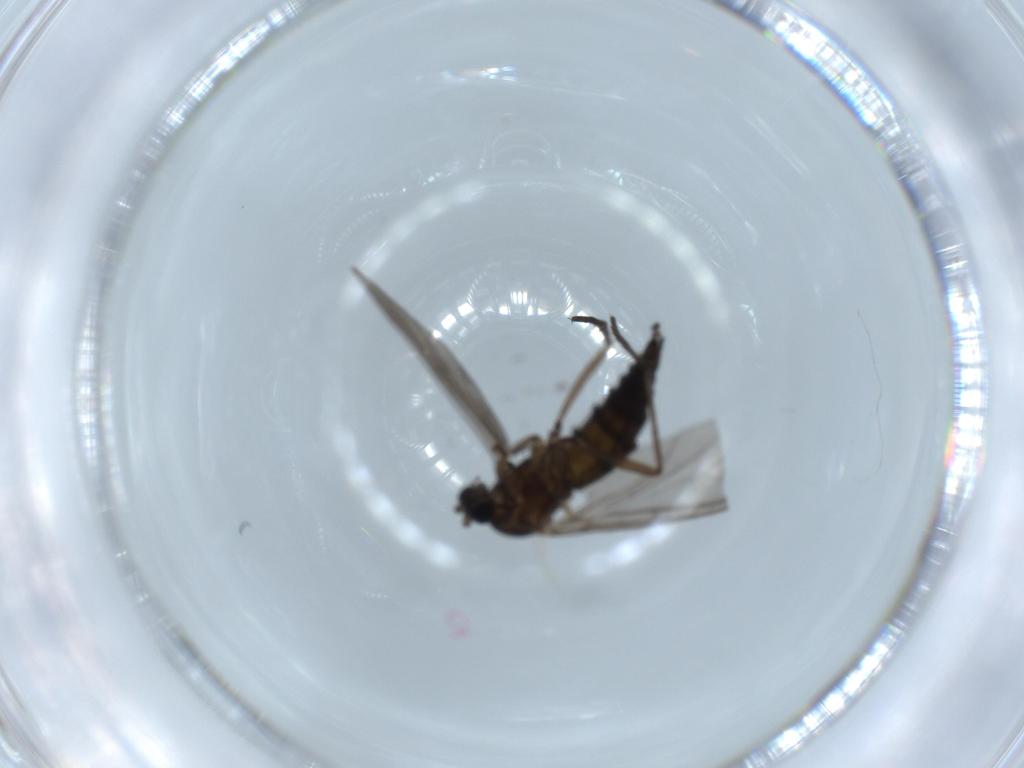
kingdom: Animalia
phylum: Arthropoda
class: Insecta
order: Diptera
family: Sciaridae
